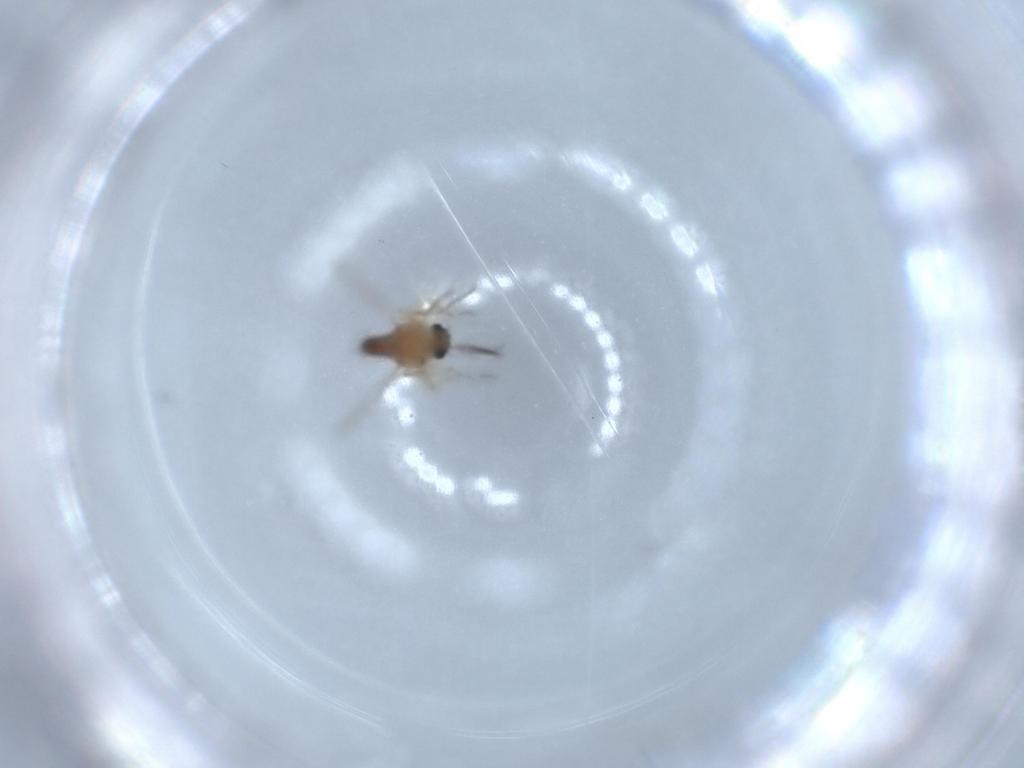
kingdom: Animalia
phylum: Arthropoda
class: Insecta
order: Diptera
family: Ceratopogonidae
